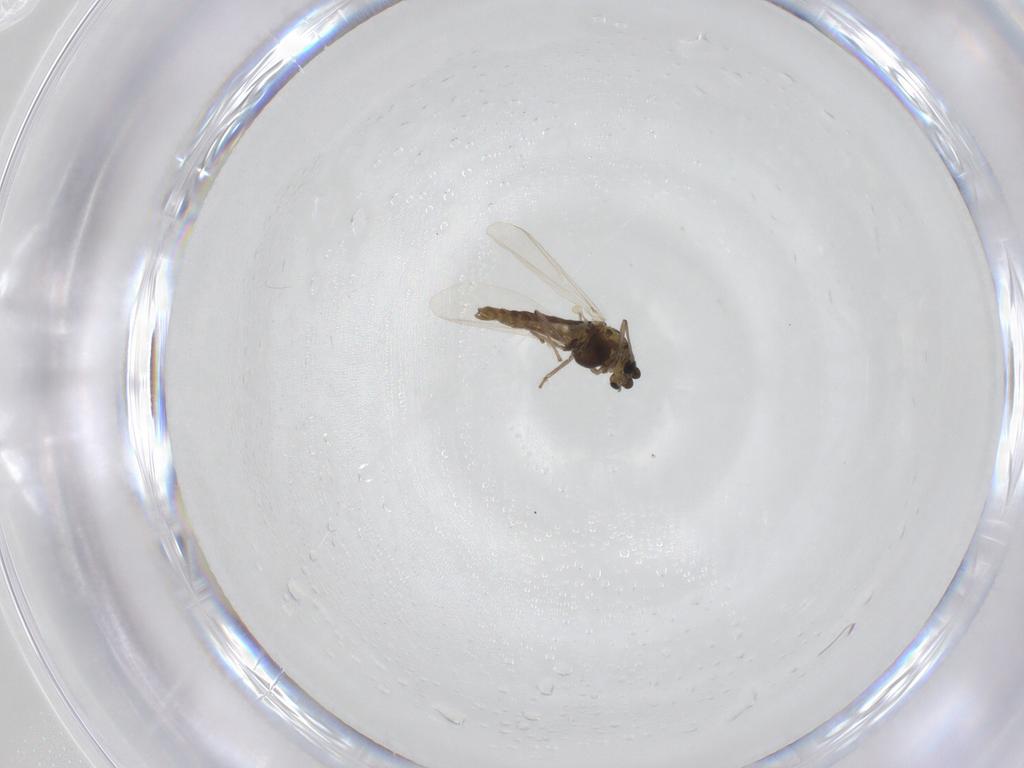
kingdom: Animalia
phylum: Arthropoda
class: Insecta
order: Diptera
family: Chironomidae
